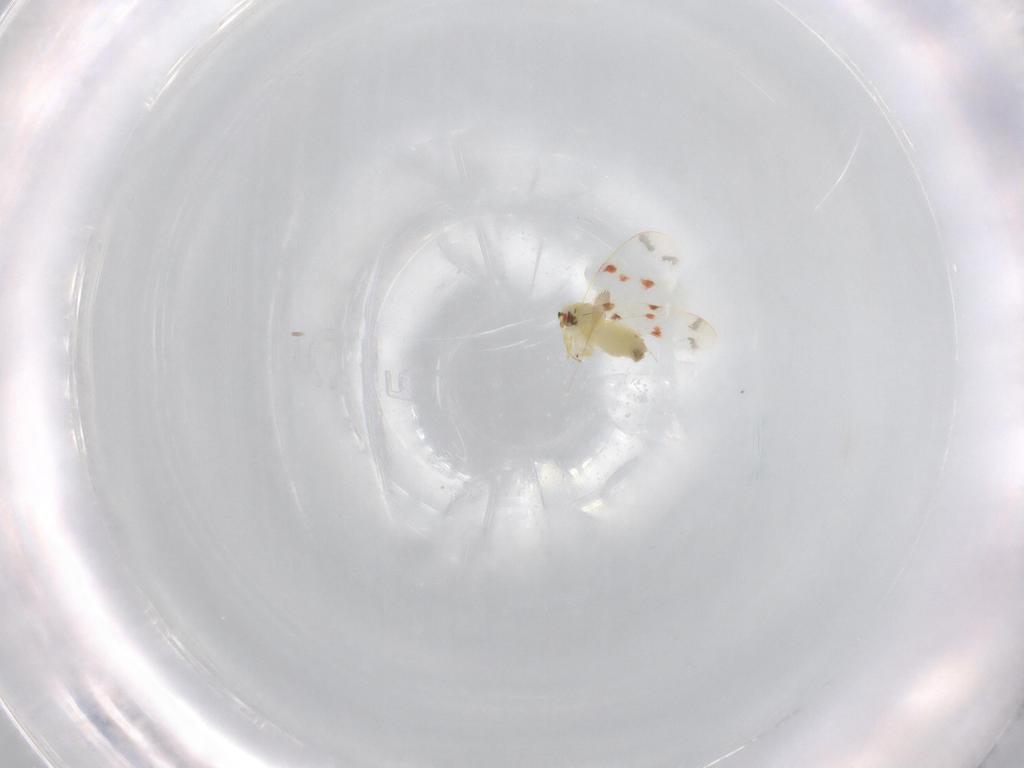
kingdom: Animalia
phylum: Arthropoda
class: Insecta
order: Hemiptera
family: Aleyrodidae
